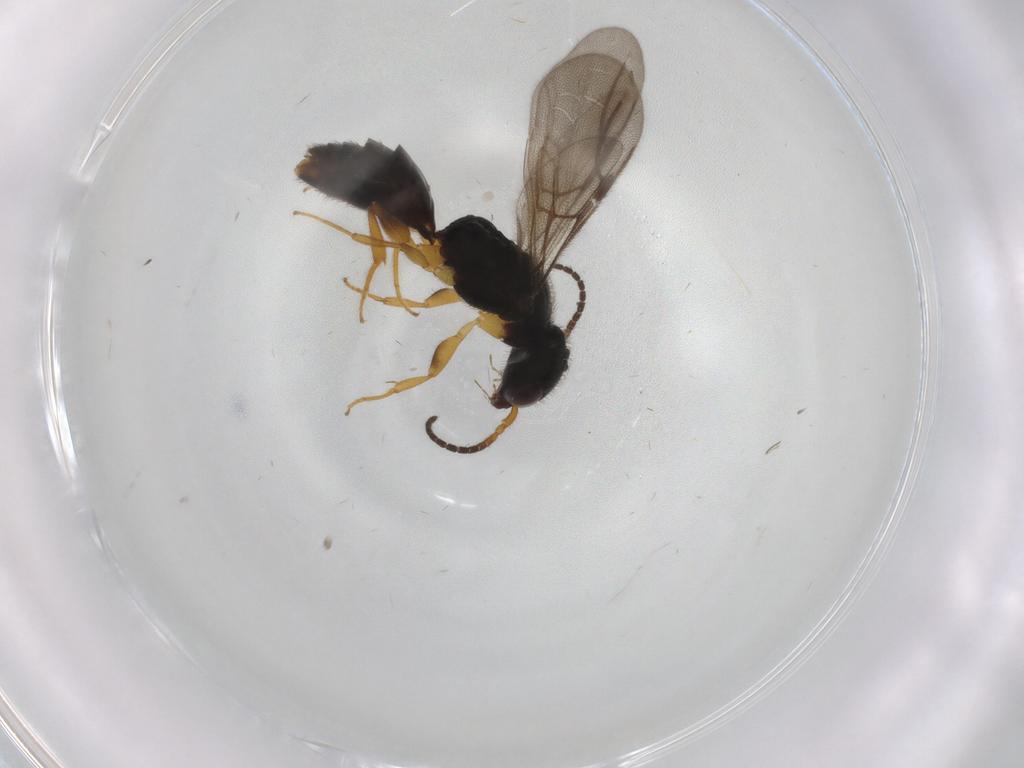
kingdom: Animalia
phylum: Arthropoda
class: Insecta
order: Hymenoptera
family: Bethylidae
